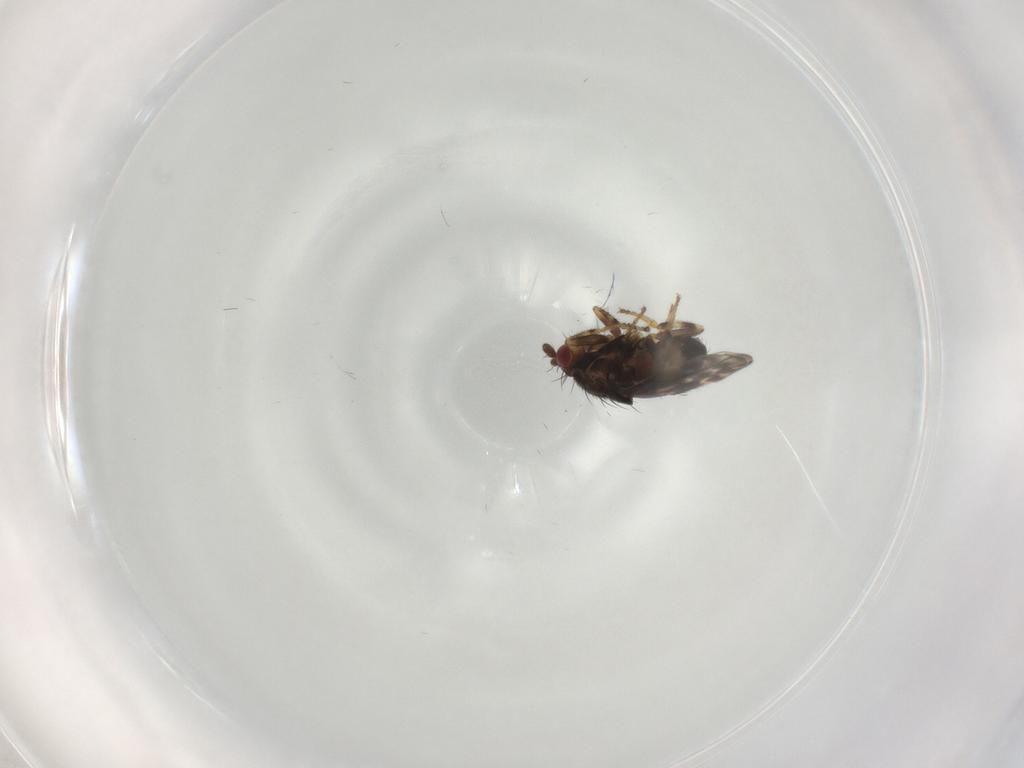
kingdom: Animalia
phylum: Arthropoda
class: Insecta
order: Diptera
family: Sphaeroceridae
